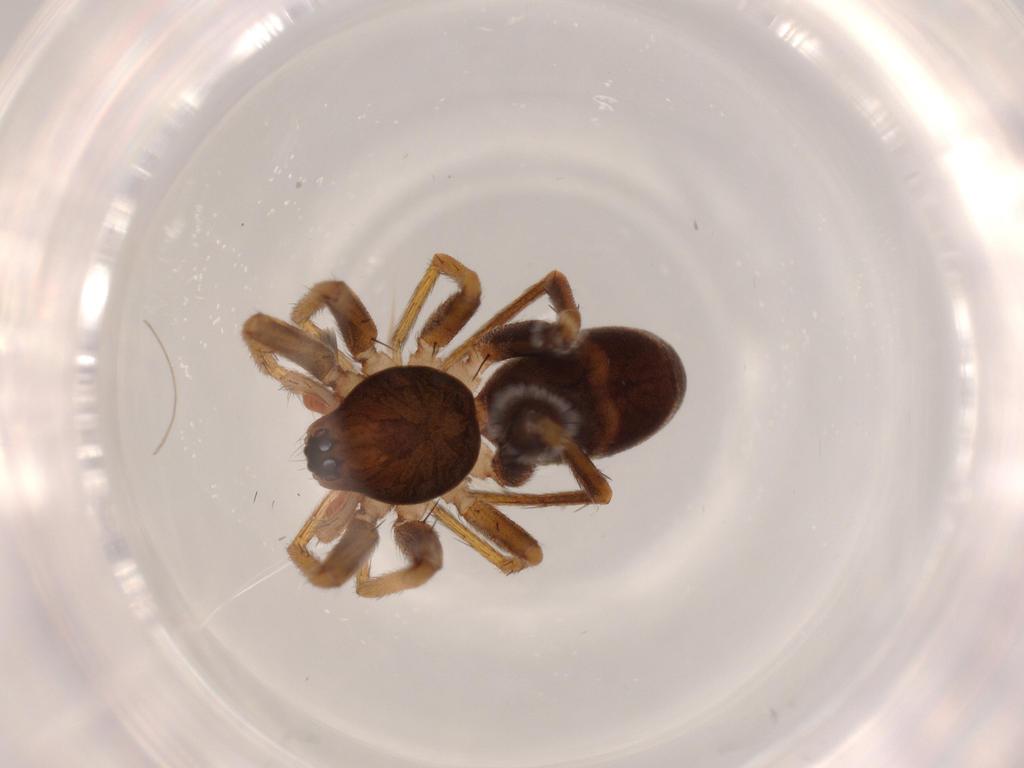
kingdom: Animalia
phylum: Arthropoda
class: Arachnida
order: Araneae
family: Corinnidae
